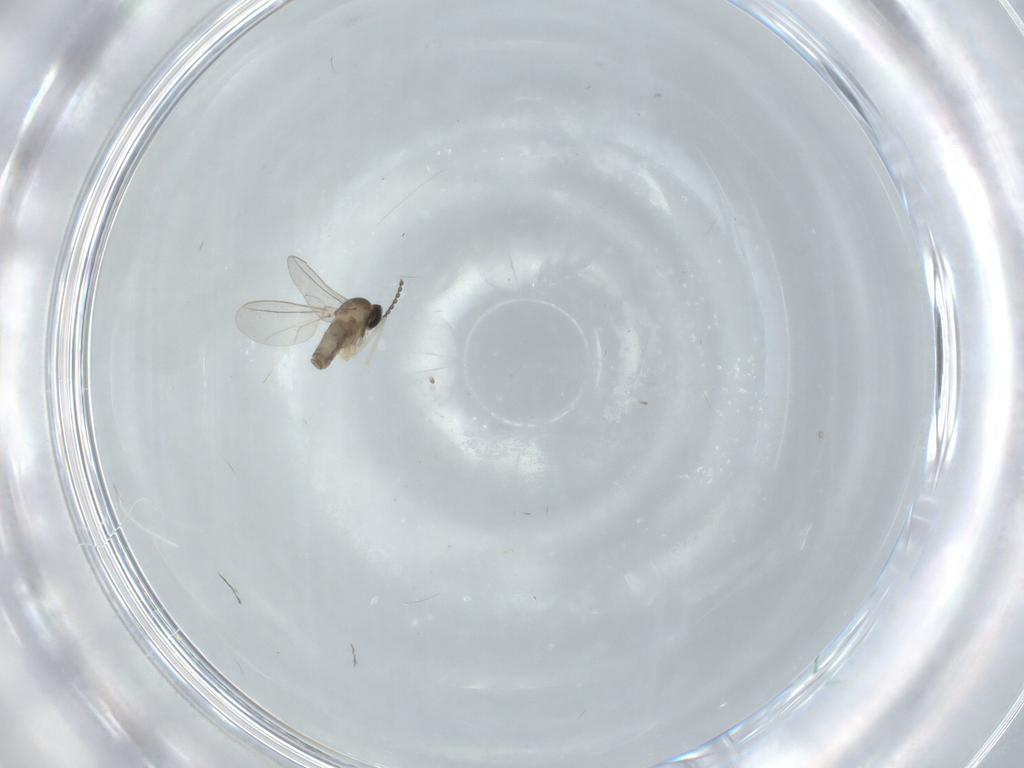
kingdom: Animalia
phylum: Arthropoda
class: Insecta
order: Diptera
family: Cecidomyiidae
